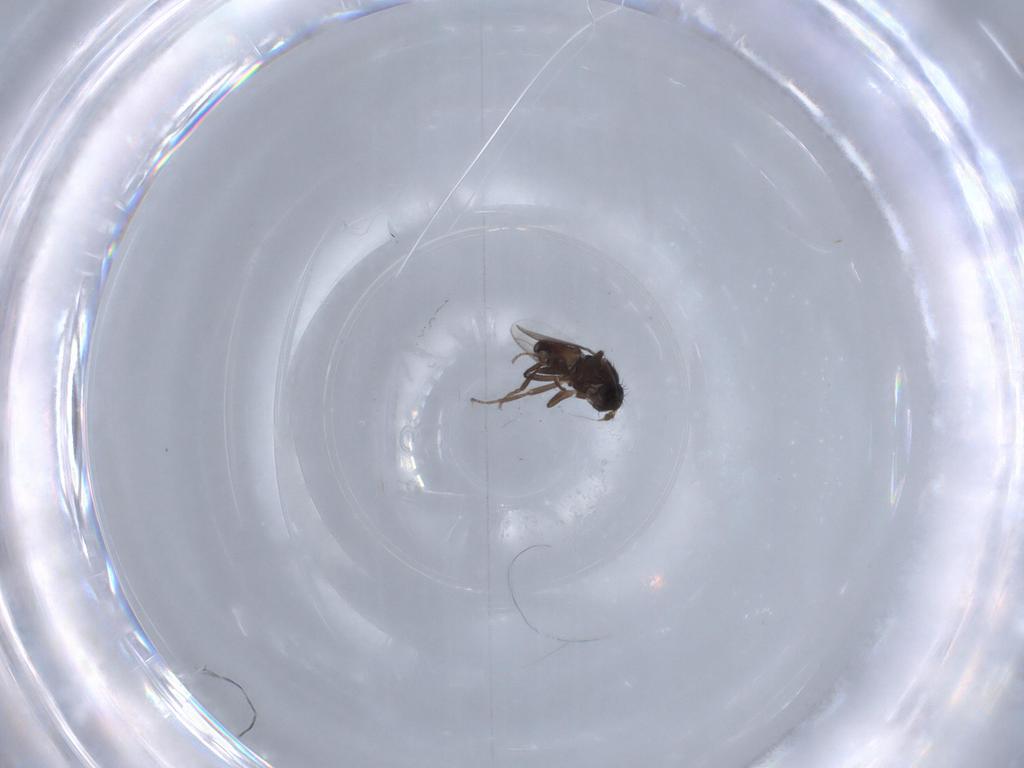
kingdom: Animalia
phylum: Arthropoda
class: Insecta
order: Diptera
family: Sphaeroceridae
